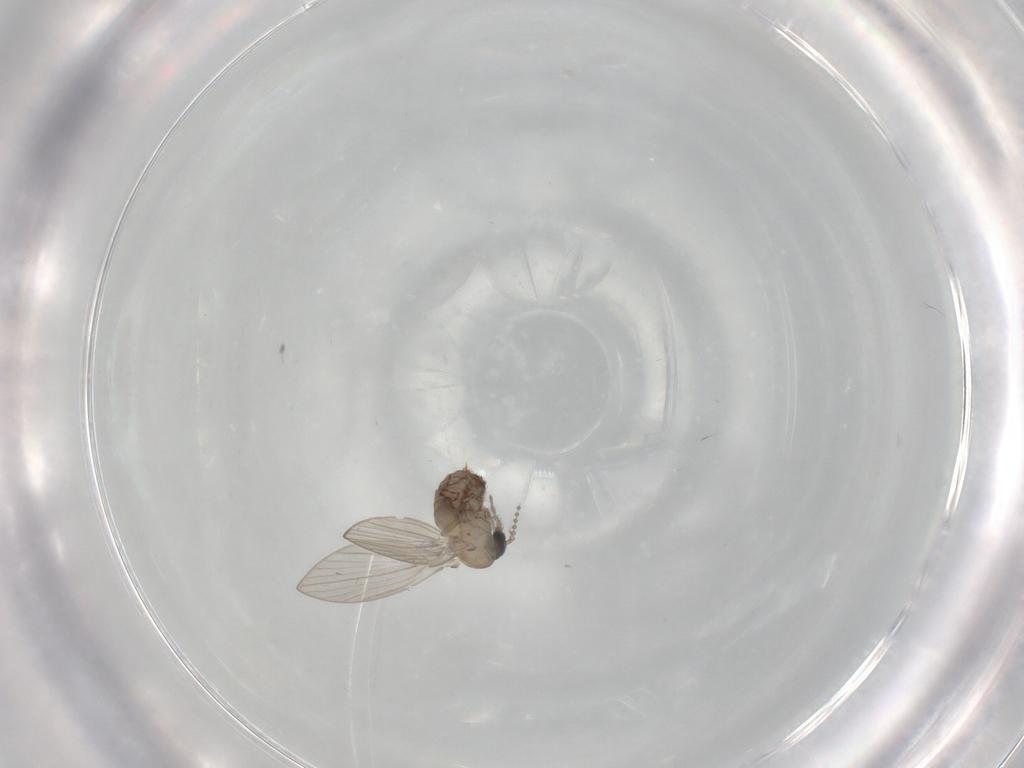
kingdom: Animalia
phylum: Arthropoda
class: Insecta
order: Diptera
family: Psychodidae
